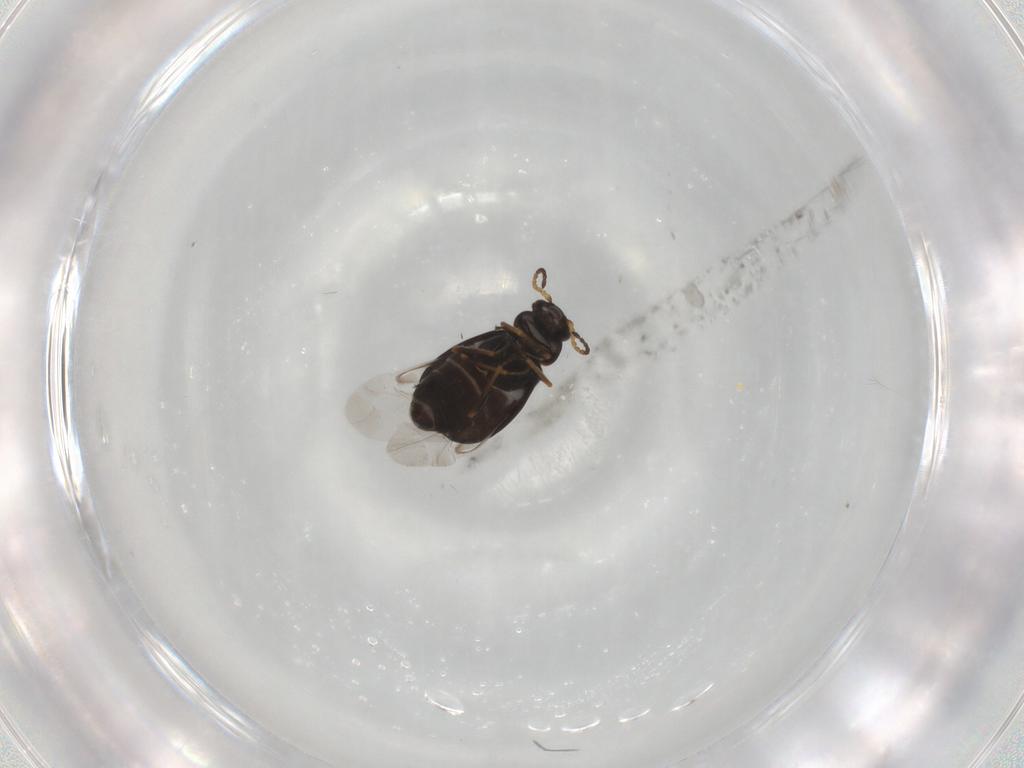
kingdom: Animalia
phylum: Arthropoda
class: Insecta
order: Coleoptera
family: Melyridae
